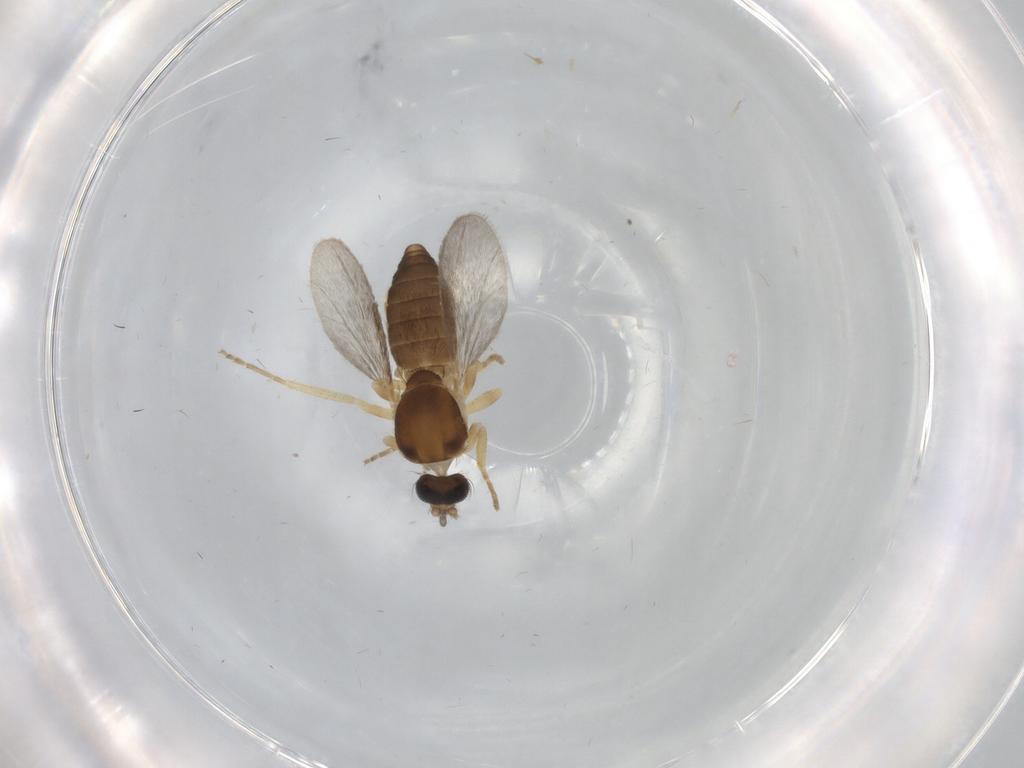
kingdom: Animalia
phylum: Arthropoda
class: Insecta
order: Diptera
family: Ceratopogonidae
